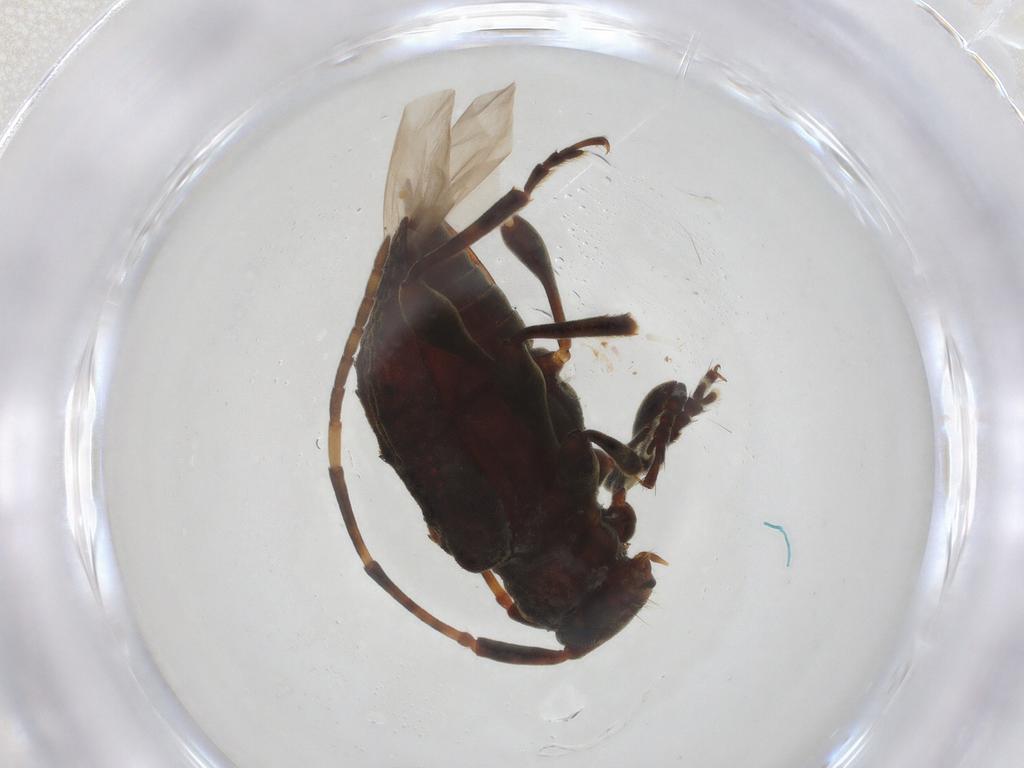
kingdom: Animalia
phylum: Arthropoda
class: Insecta
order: Coleoptera
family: Cerambycidae
